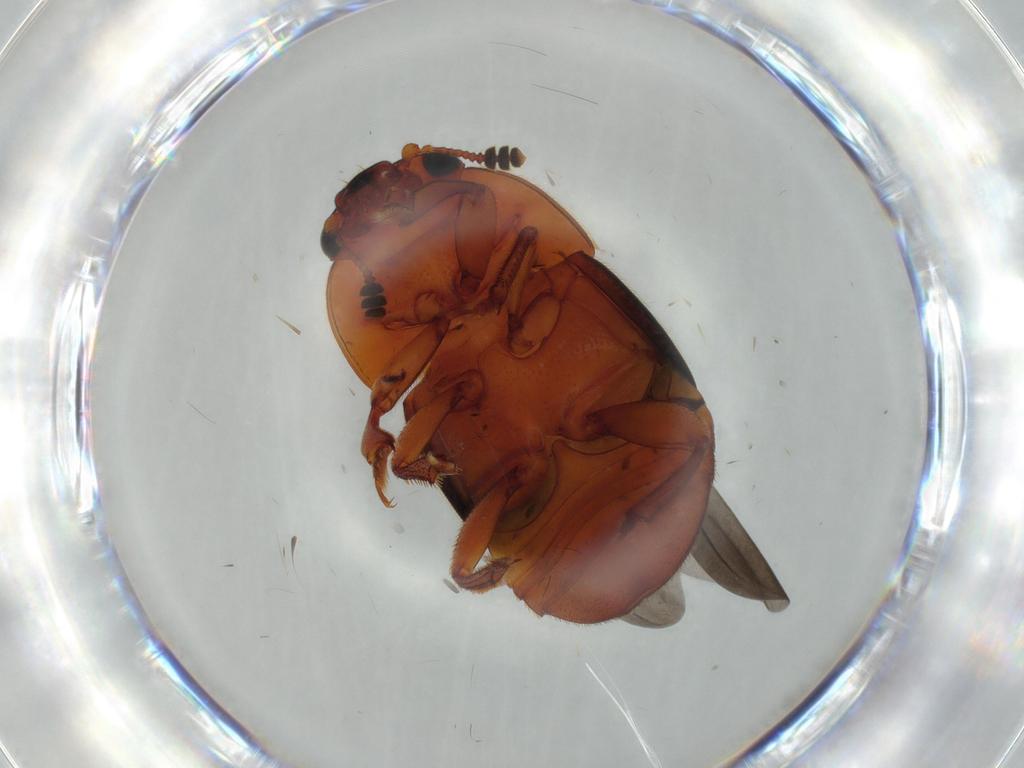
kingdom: Animalia
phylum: Arthropoda
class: Insecta
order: Coleoptera
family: Nitidulidae
